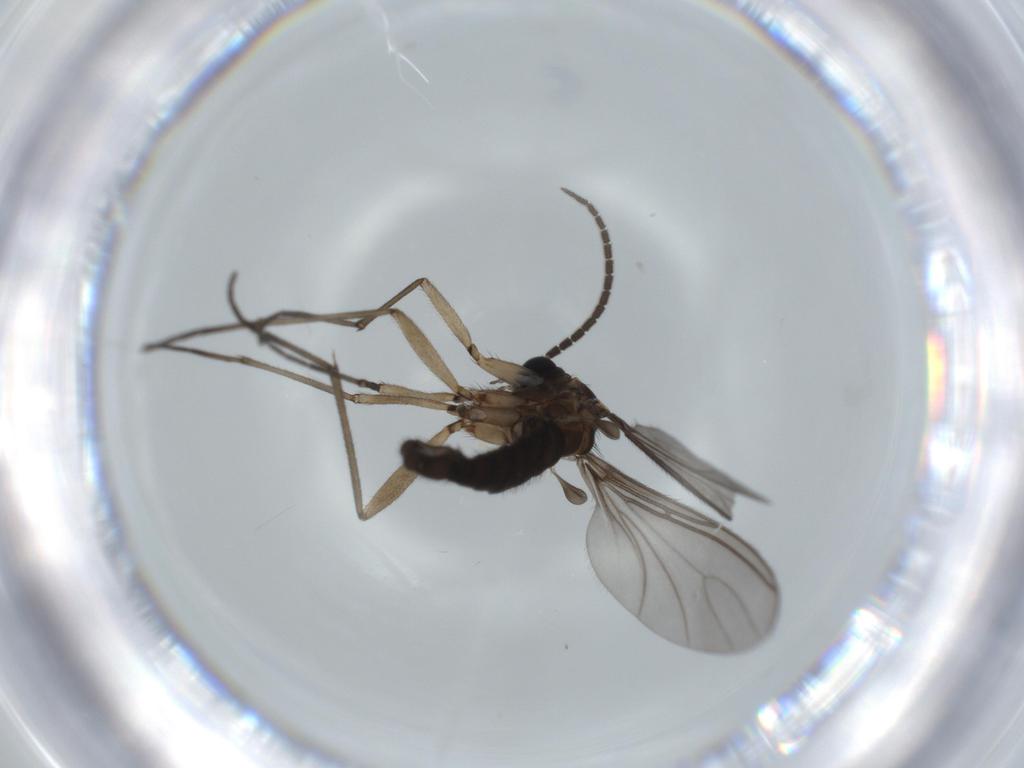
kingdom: Animalia
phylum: Arthropoda
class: Insecta
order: Diptera
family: Sciaridae
